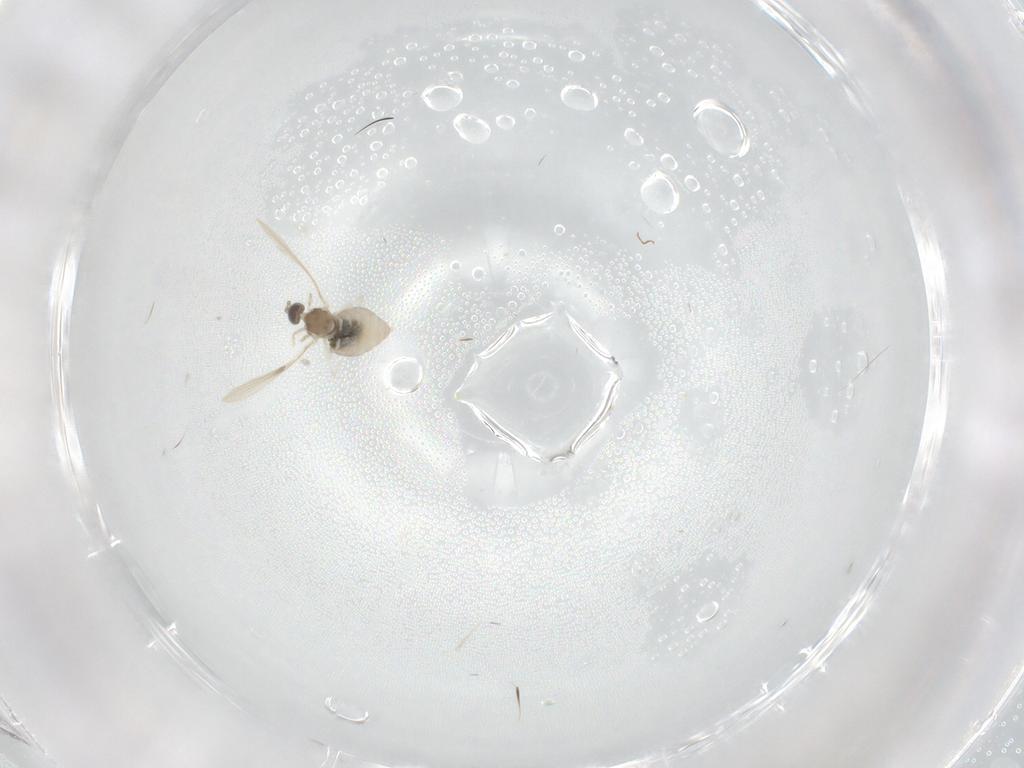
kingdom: Animalia
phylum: Arthropoda
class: Insecta
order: Diptera
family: Cecidomyiidae
